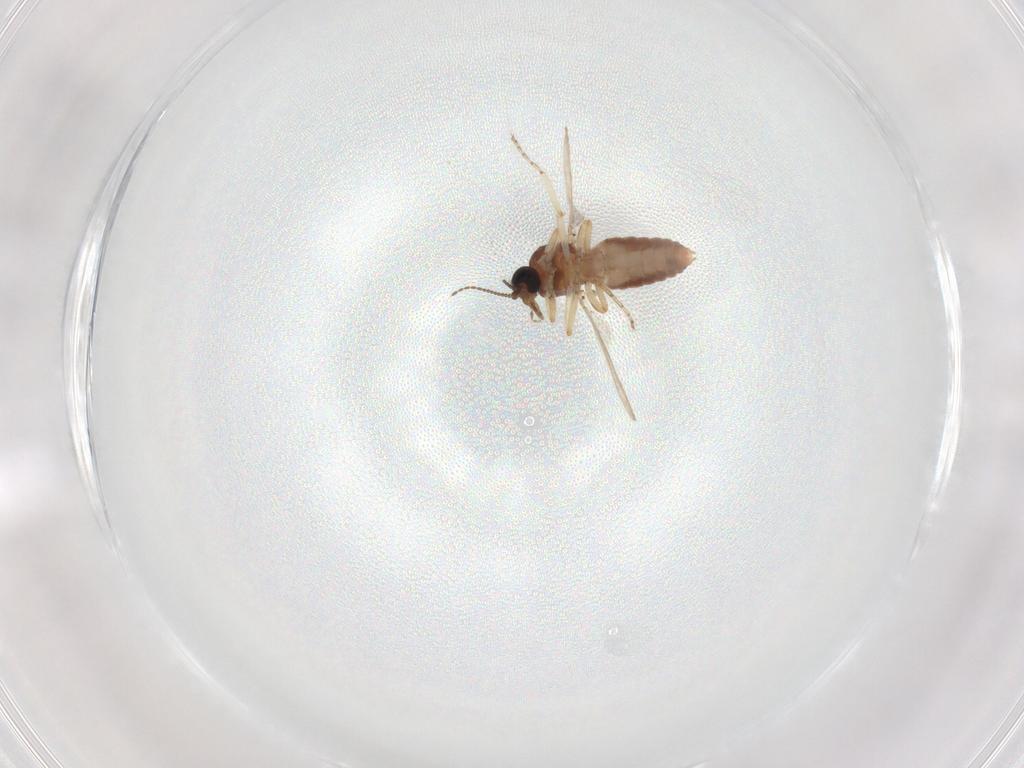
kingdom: Animalia
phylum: Arthropoda
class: Insecta
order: Diptera
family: Ceratopogonidae
